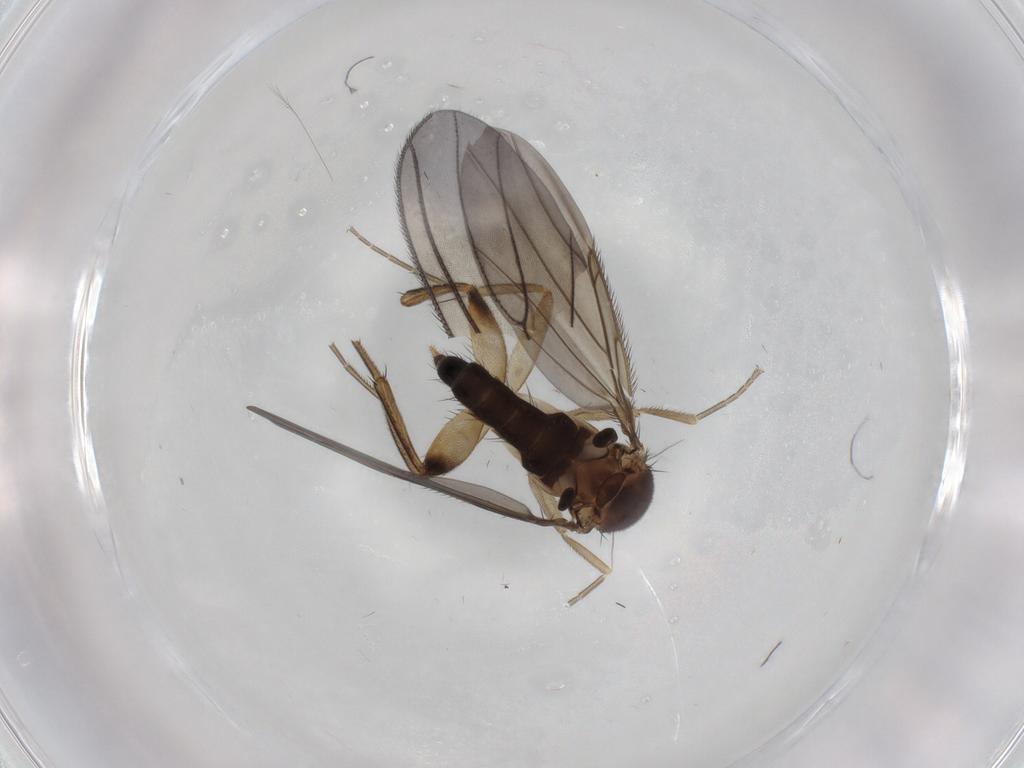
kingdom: Animalia
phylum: Arthropoda
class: Insecta
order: Diptera
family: Phoridae
